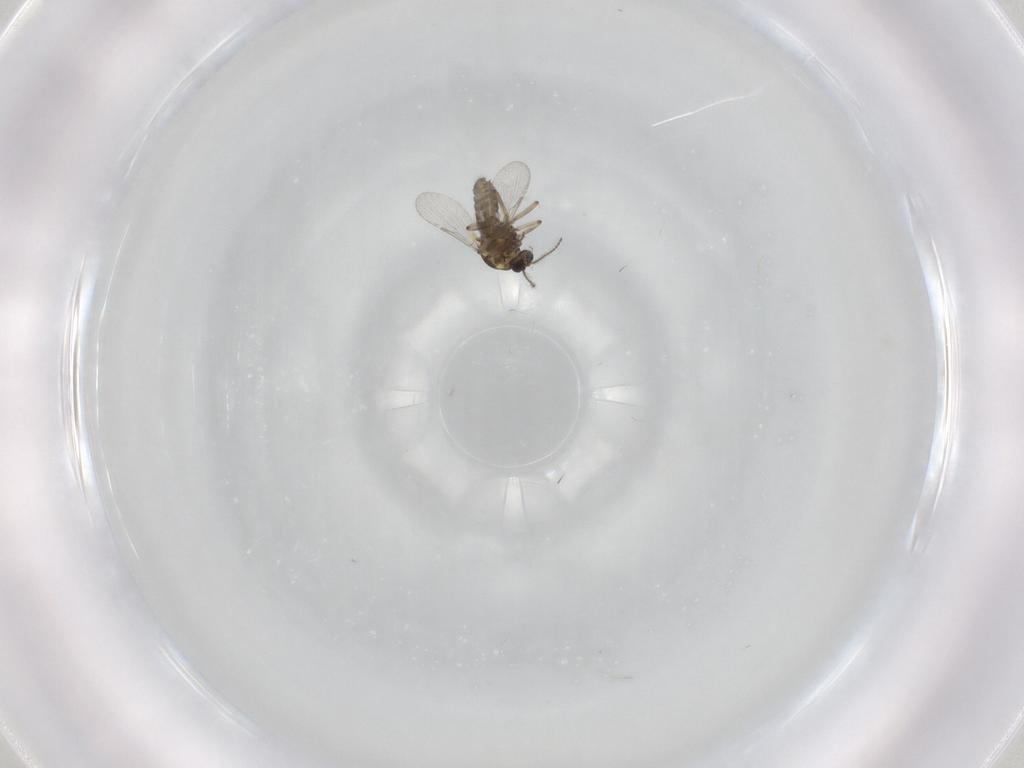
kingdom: Animalia
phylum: Arthropoda
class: Insecta
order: Diptera
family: Ceratopogonidae
